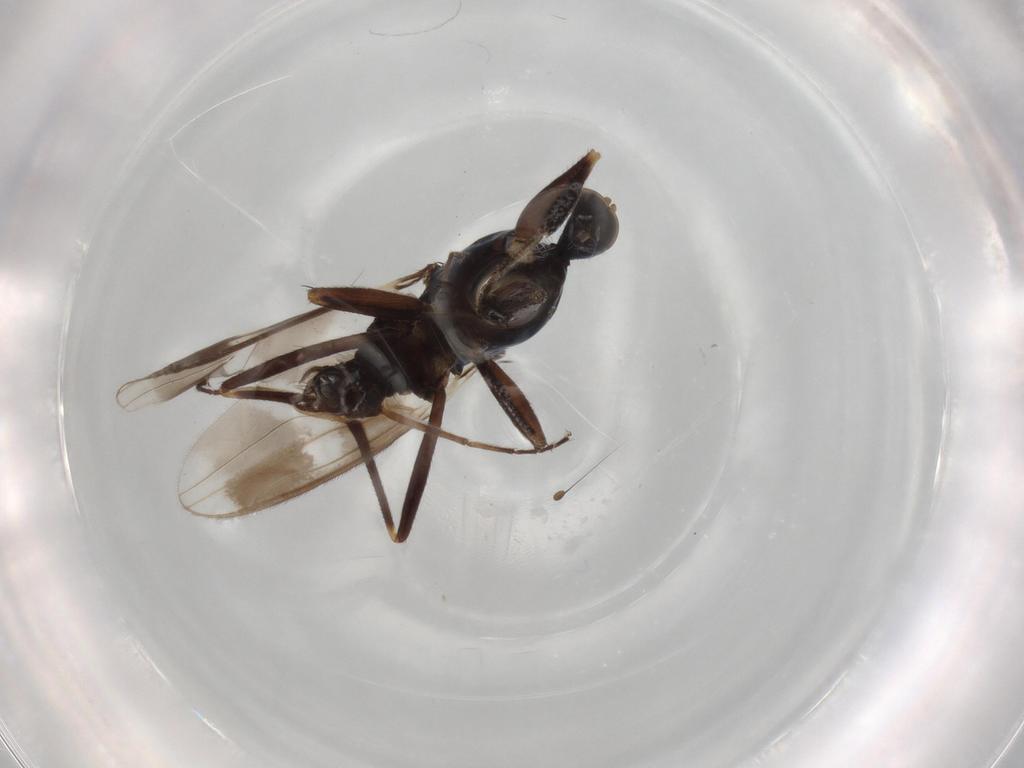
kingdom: Animalia
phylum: Arthropoda
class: Insecta
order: Diptera
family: Hybotidae
